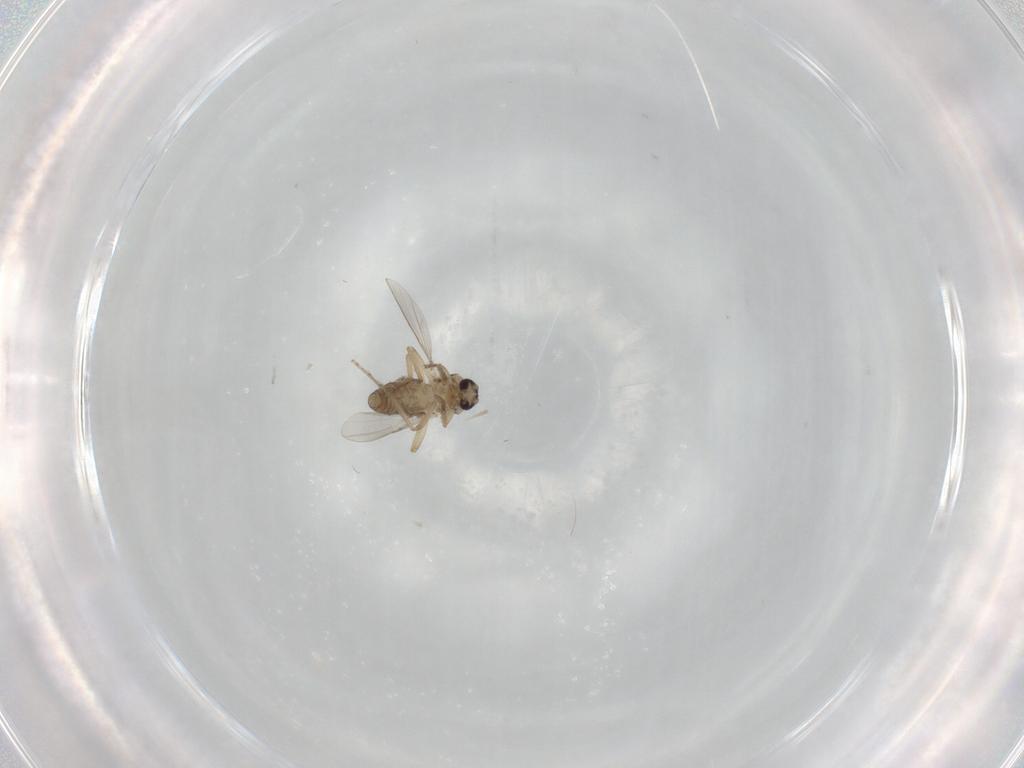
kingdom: Animalia
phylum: Arthropoda
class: Insecta
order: Diptera
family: Ceratopogonidae
